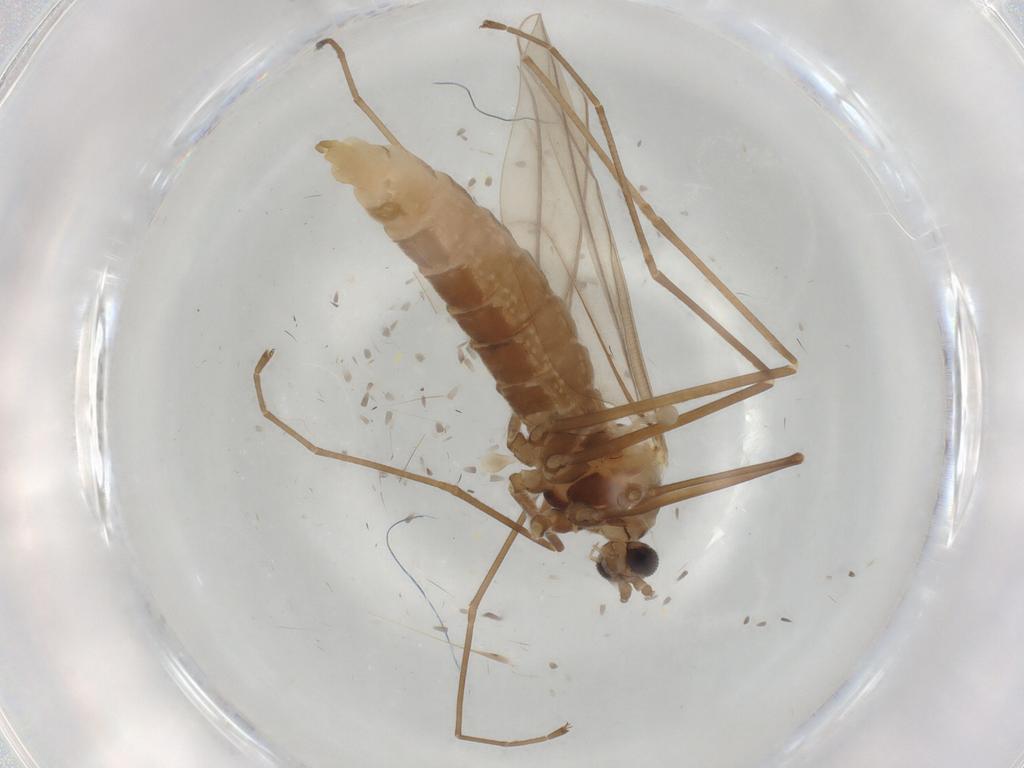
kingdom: Animalia
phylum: Arthropoda
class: Insecta
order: Diptera
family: Cecidomyiidae
